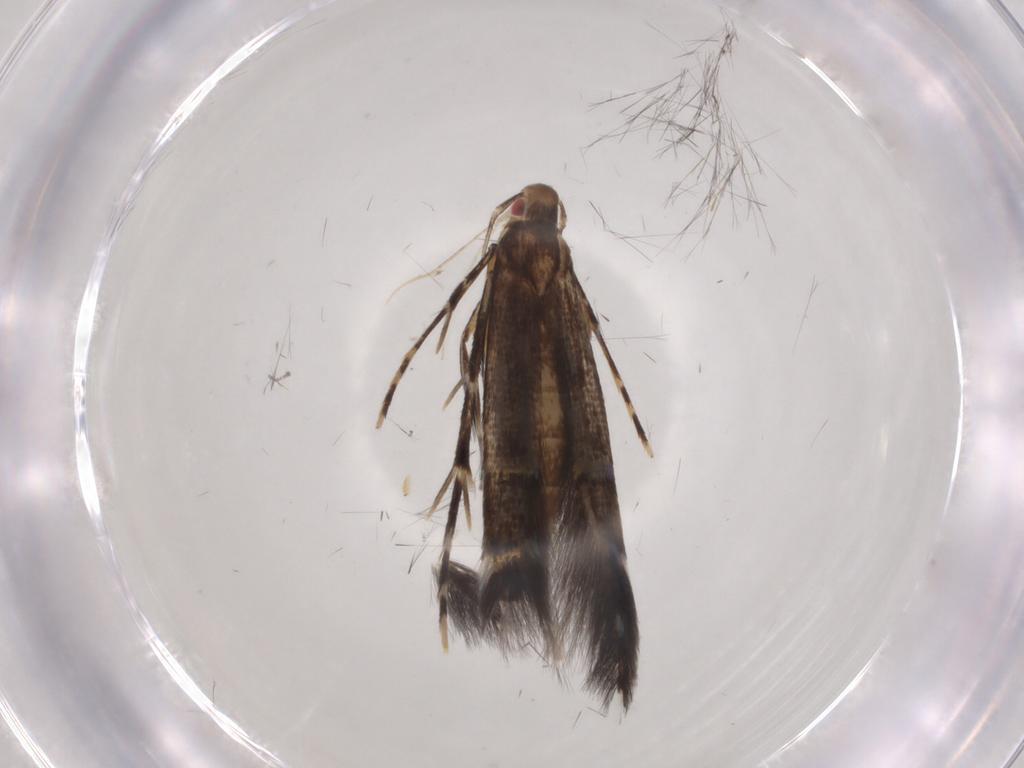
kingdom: Animalia
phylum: Arthropoda
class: Insecta
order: Lepidoptera
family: Cosmopterigidae
